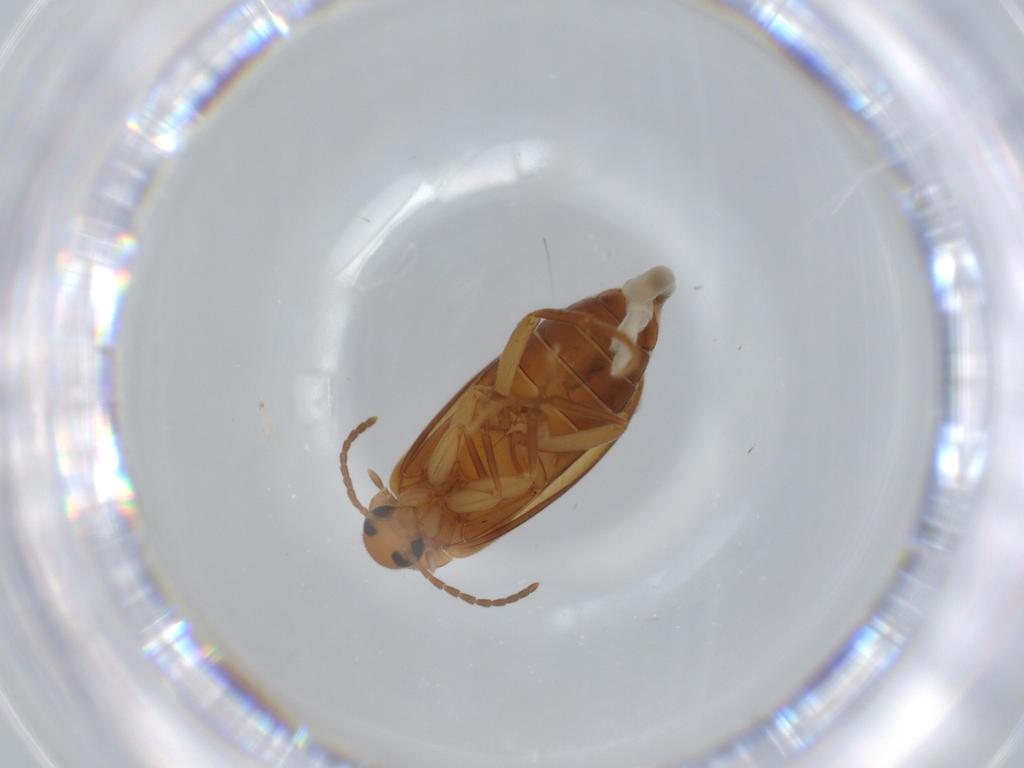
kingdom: Animalia
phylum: Arthropoda
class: Insecta
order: Coleoptera
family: Scraptiidae
